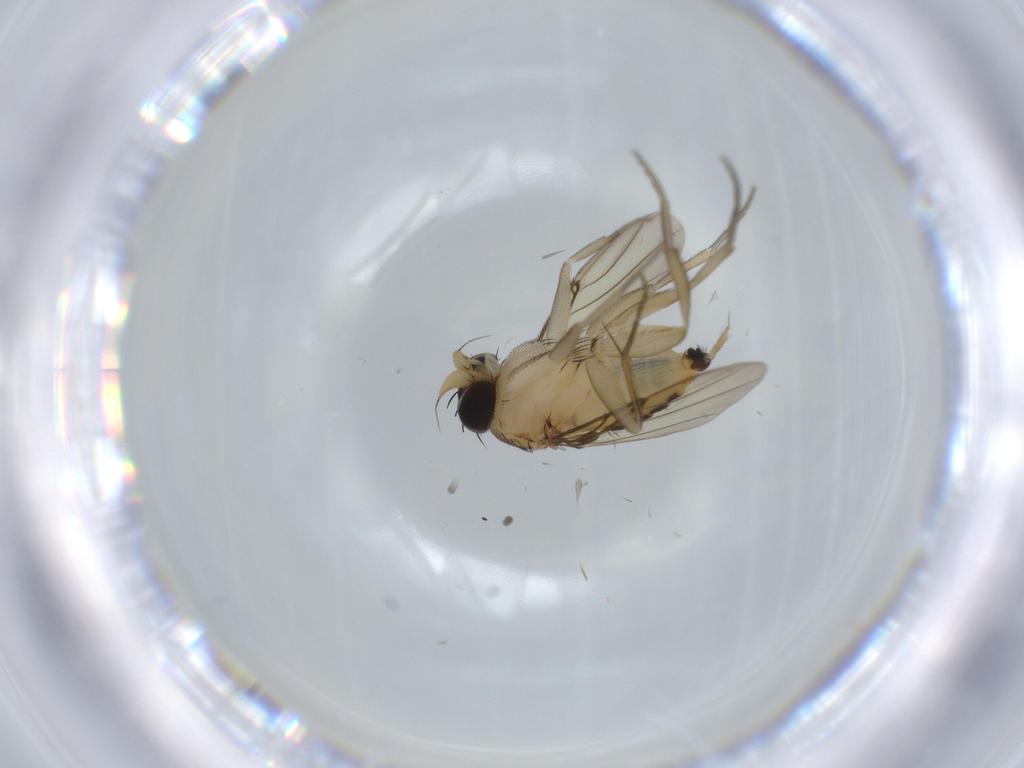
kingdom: Animalia
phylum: Arthropoda
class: Insecta
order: Diptera
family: Phoridae
